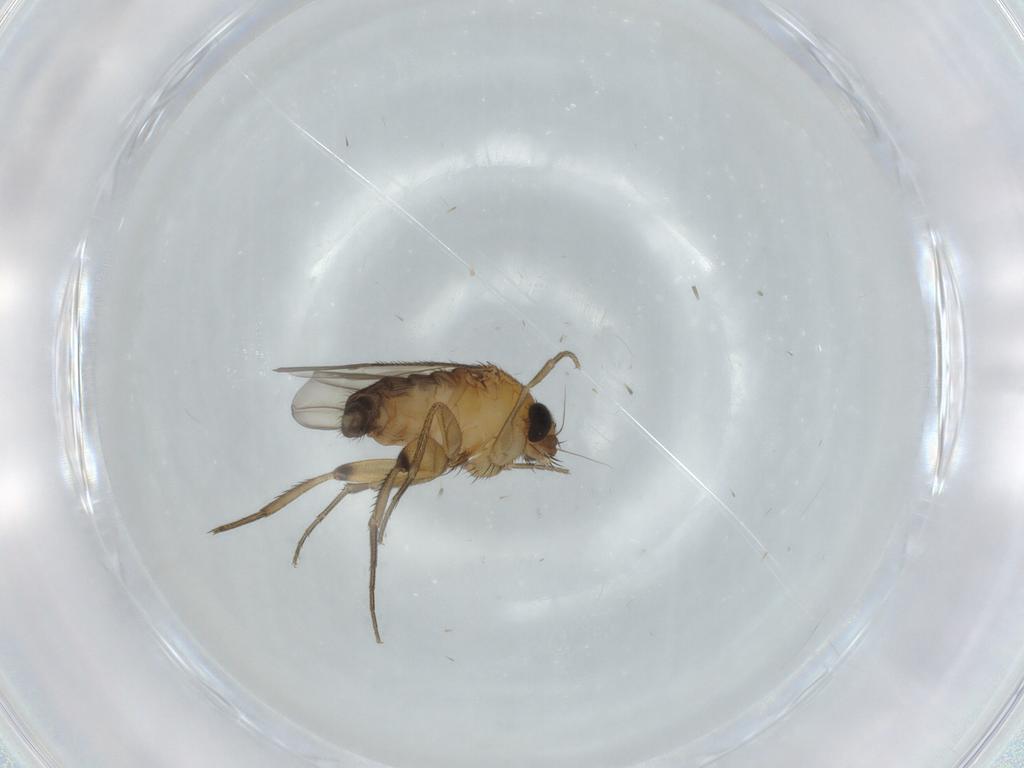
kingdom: Animalia
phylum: Arthropoda
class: Insecta
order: Diptera
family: Phoridae
